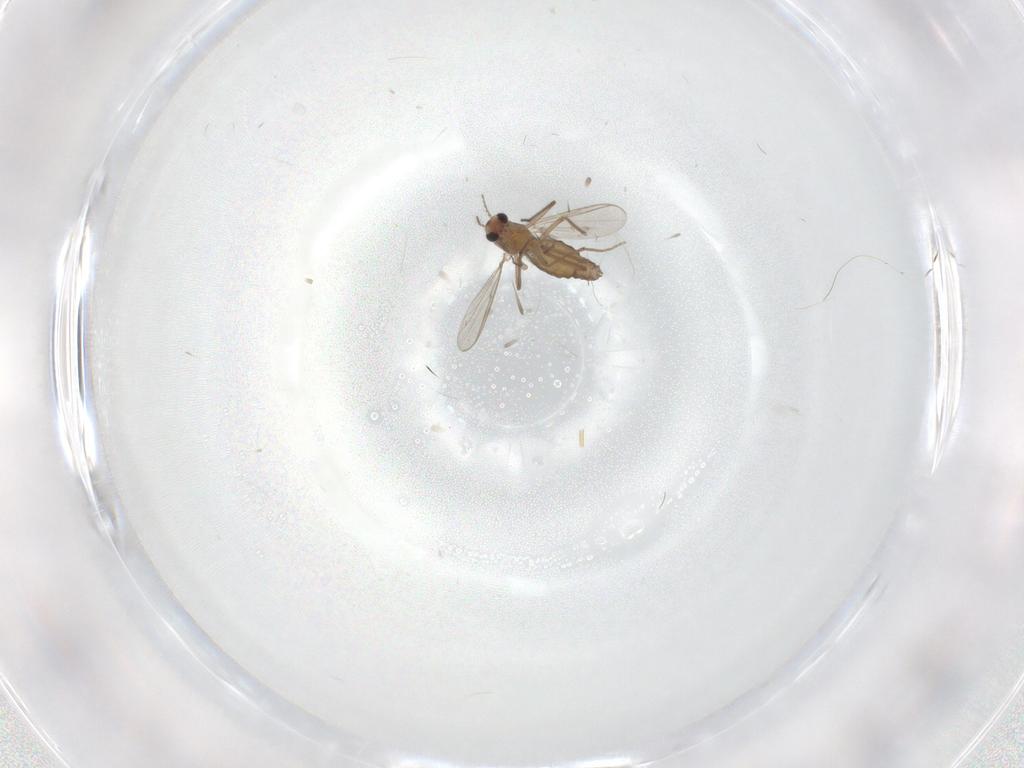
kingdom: Animalia
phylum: Arthropoda
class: Insecta
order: Diptera
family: Chironomidae
